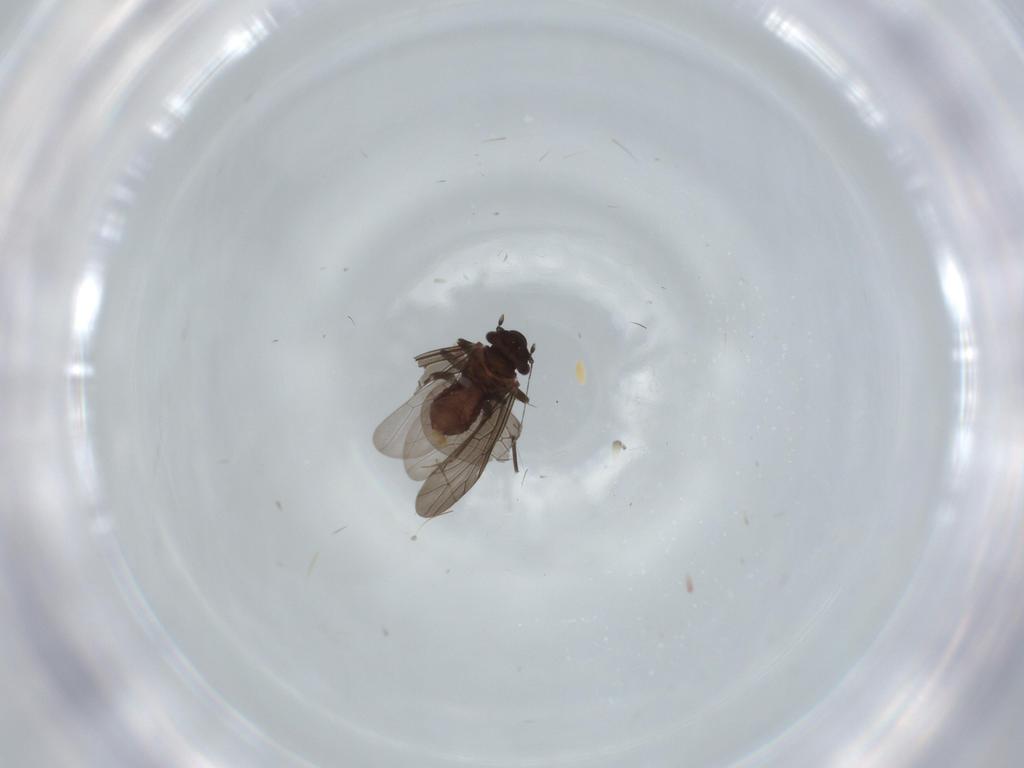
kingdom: Animalia
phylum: Arthropoda
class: Insecta
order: Psocodea
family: Lepidopsocidae
